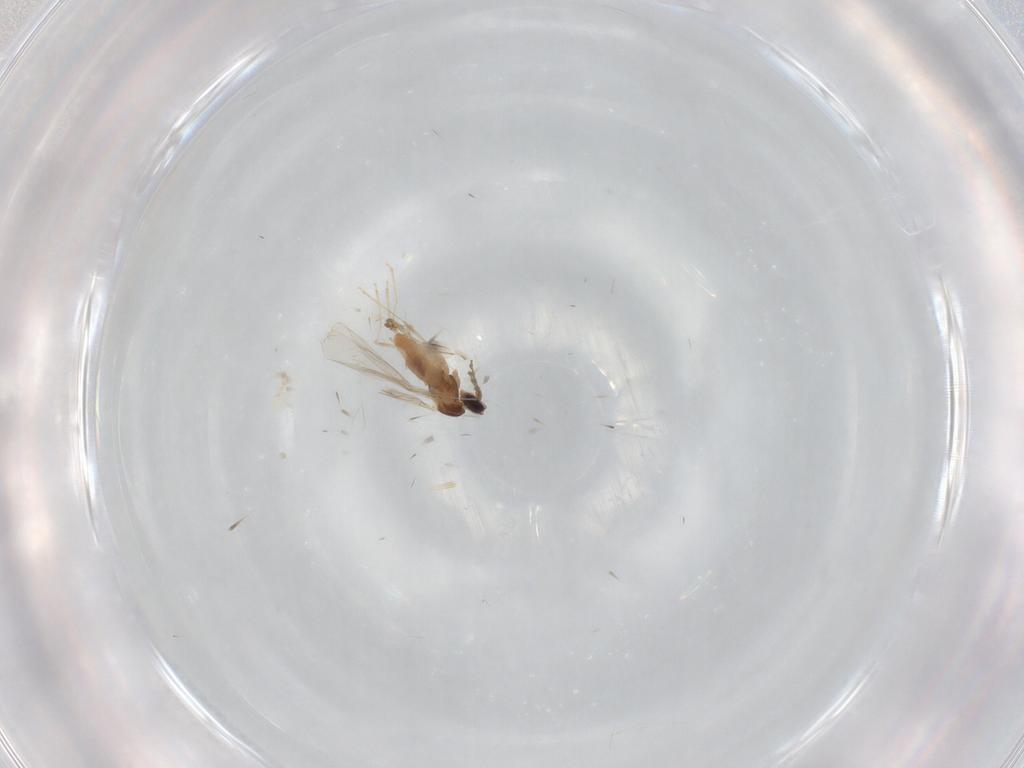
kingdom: Animalia
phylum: Arthropoda
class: Insecta
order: Diptera
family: Cecidomyiidae
